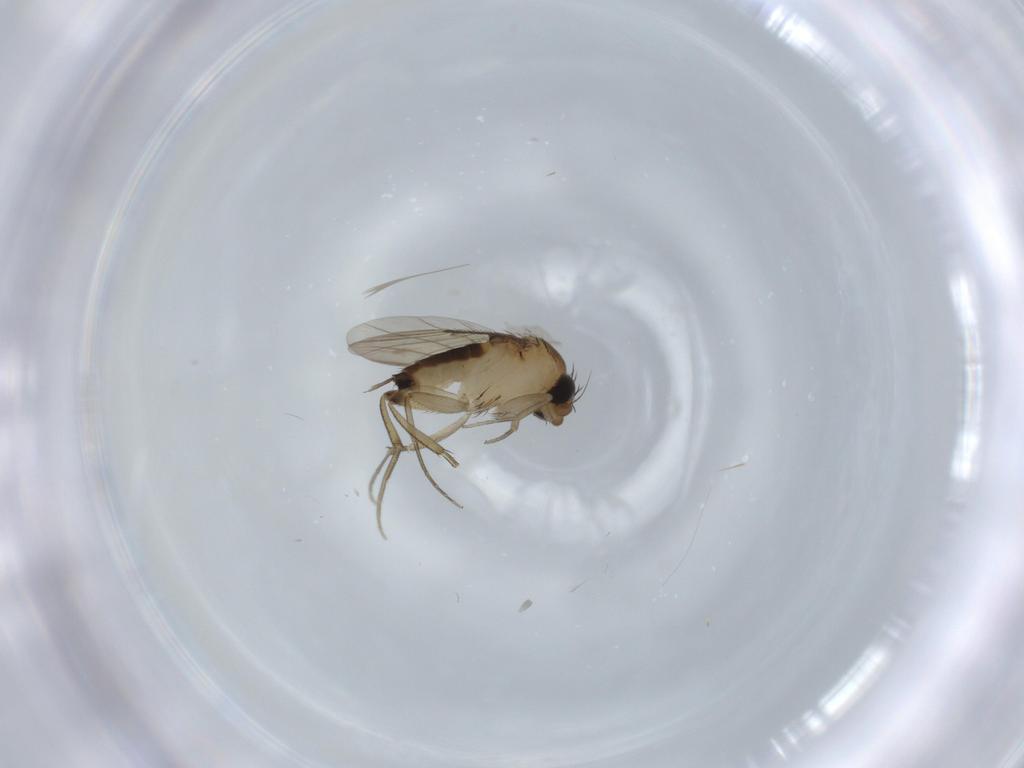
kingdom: Animalia
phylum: Arthropoda
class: Insecta
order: Diptera
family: Phoridae
